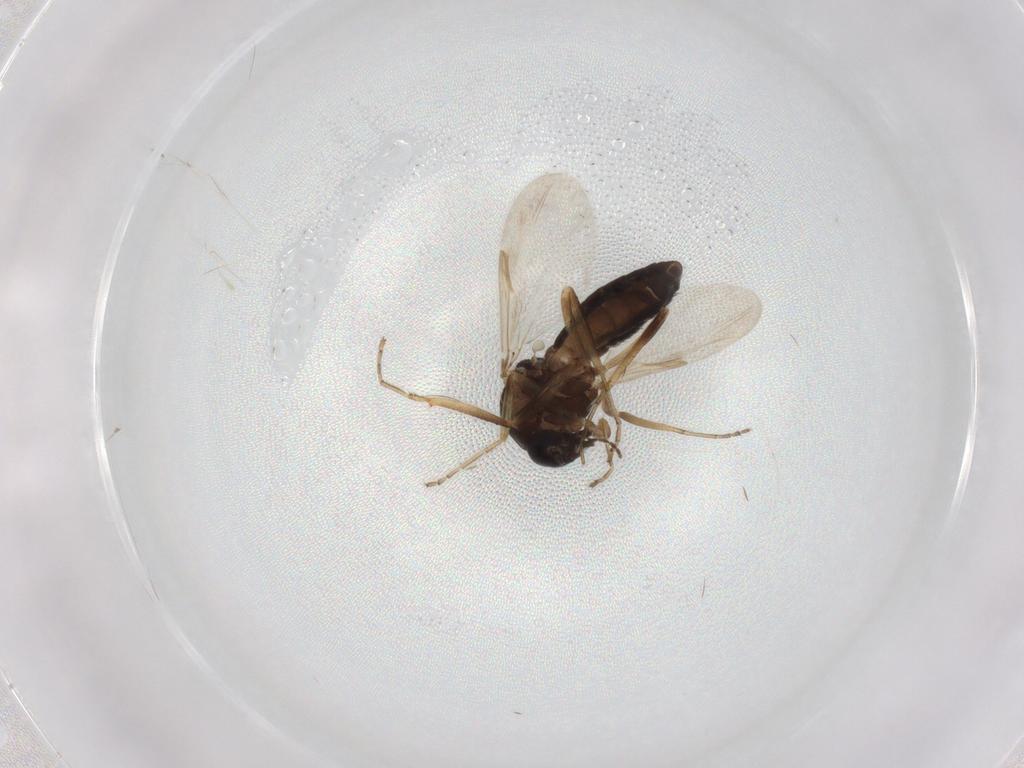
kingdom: Animalia
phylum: Arthropoda
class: Insecta
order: Diptera
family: Ceratopogonidae
